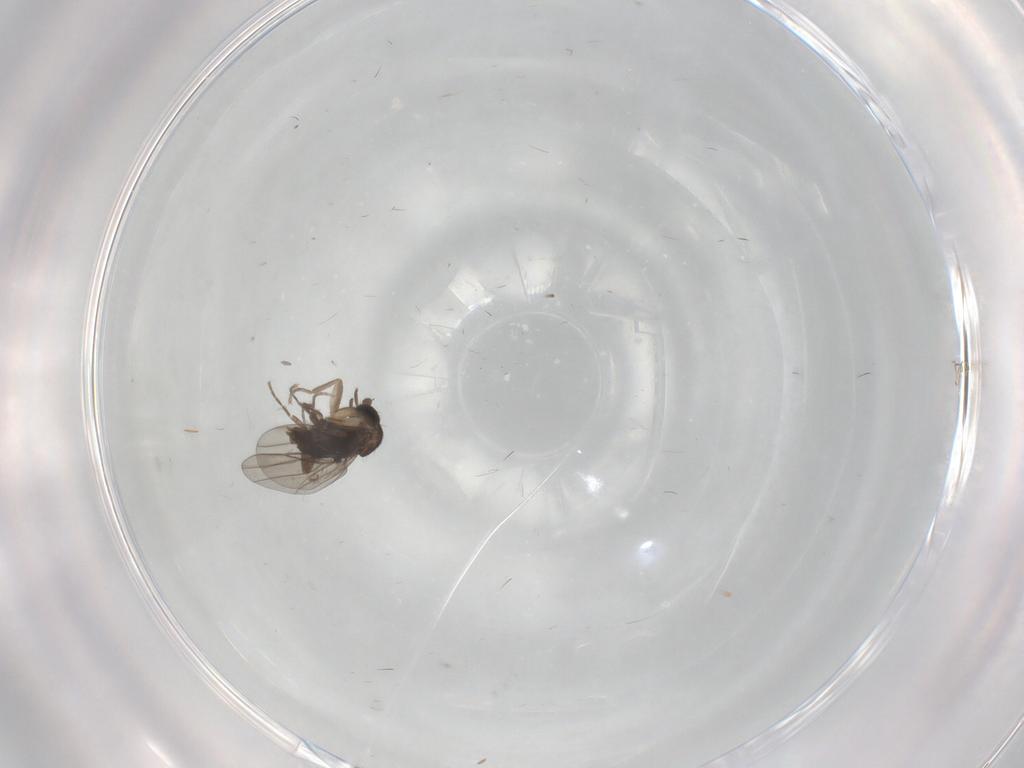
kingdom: Animalia
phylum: Arthropoda
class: Insecta
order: Diptera
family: Phoridae
